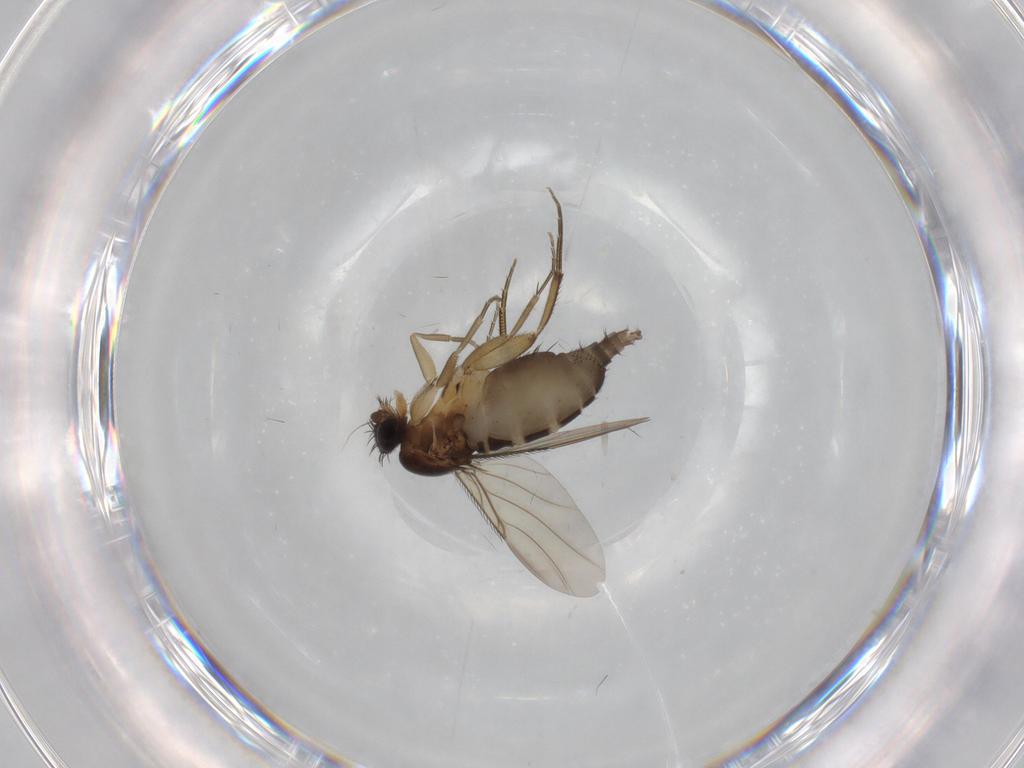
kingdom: Animalia
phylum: Arthropoda
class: Insecta
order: Diptera
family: Phoridae
